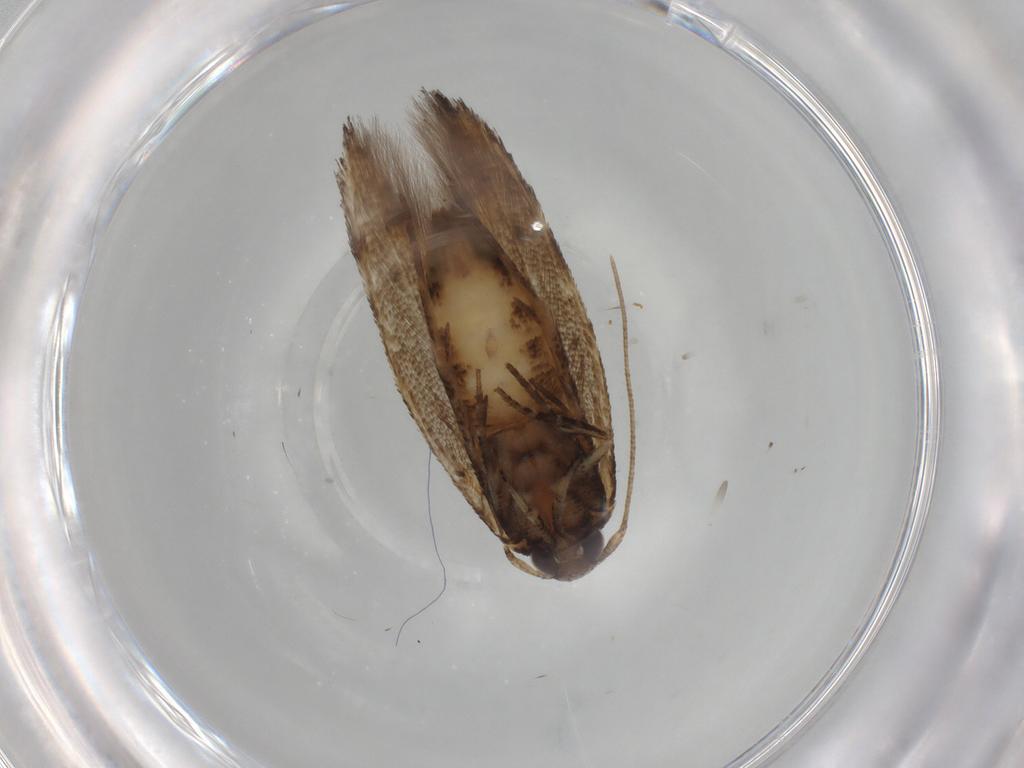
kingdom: Animalia
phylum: Arthropoda
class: Insecta
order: Lepidoptera
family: Cosmopterigidae
